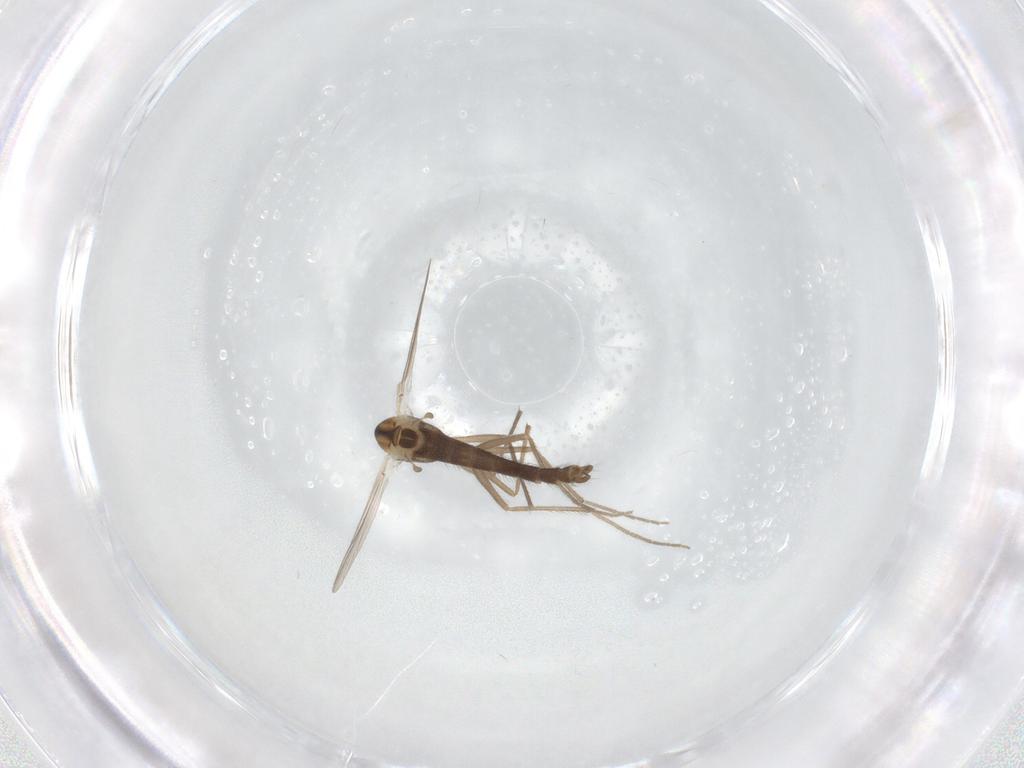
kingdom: Animalia
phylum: Arthropoda
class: Insecta
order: Diptera
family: Chironomidae
